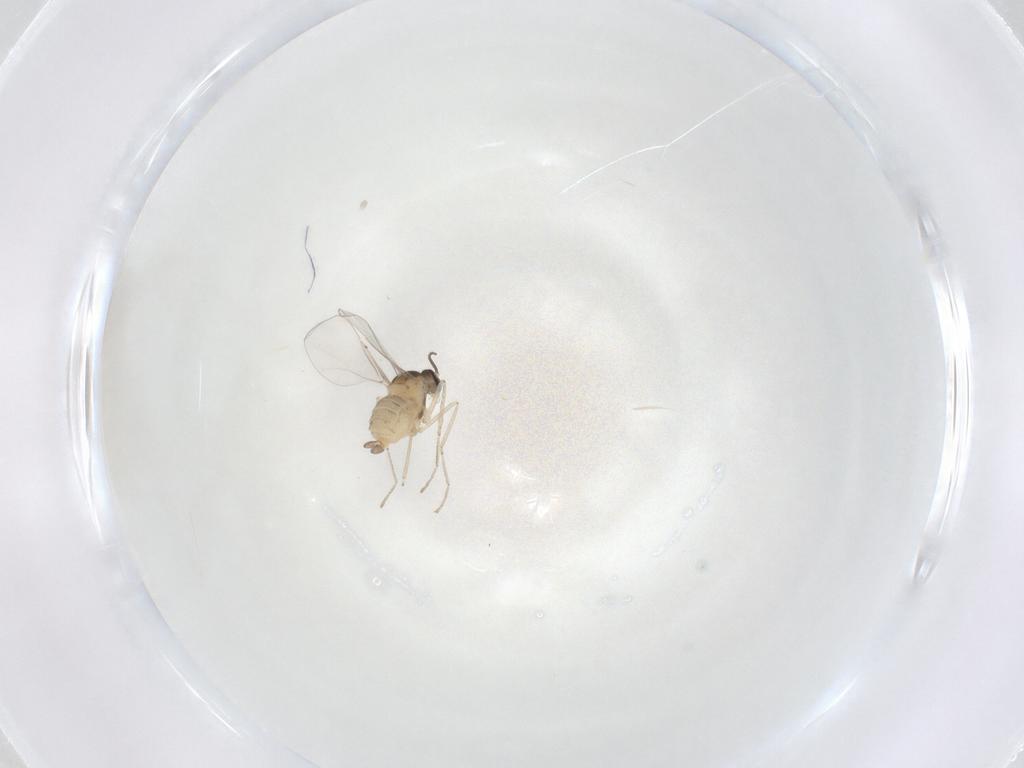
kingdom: Animalia
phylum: Arthropoda
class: Insecta
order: Diptera
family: Cecidomyiidae
